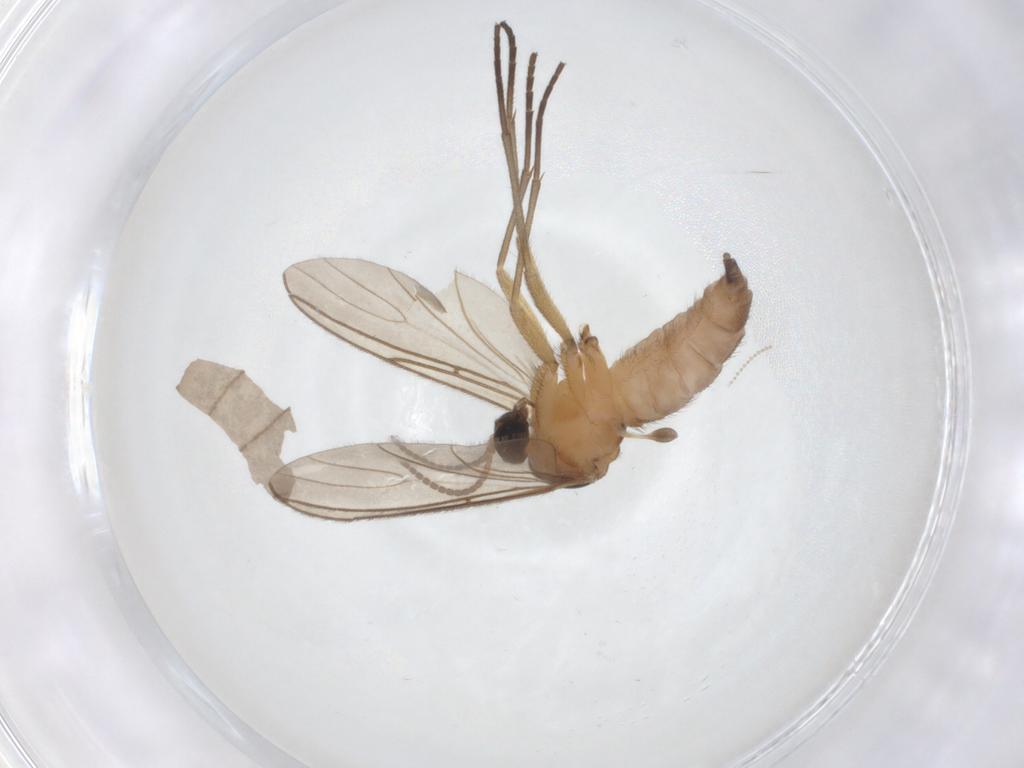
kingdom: Animalia
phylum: Arthropoda
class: Insecta
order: Diptera
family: Sciaridae
